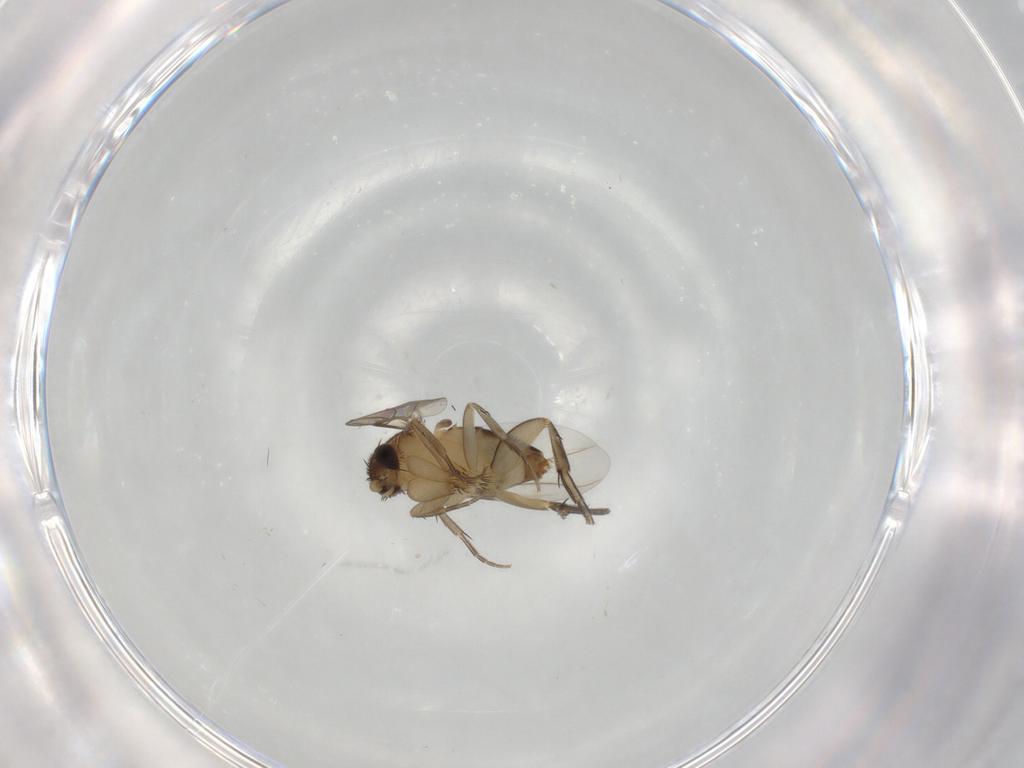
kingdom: Animalia
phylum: Arthropoda
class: Insecta
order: Diptera
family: Phoridae
